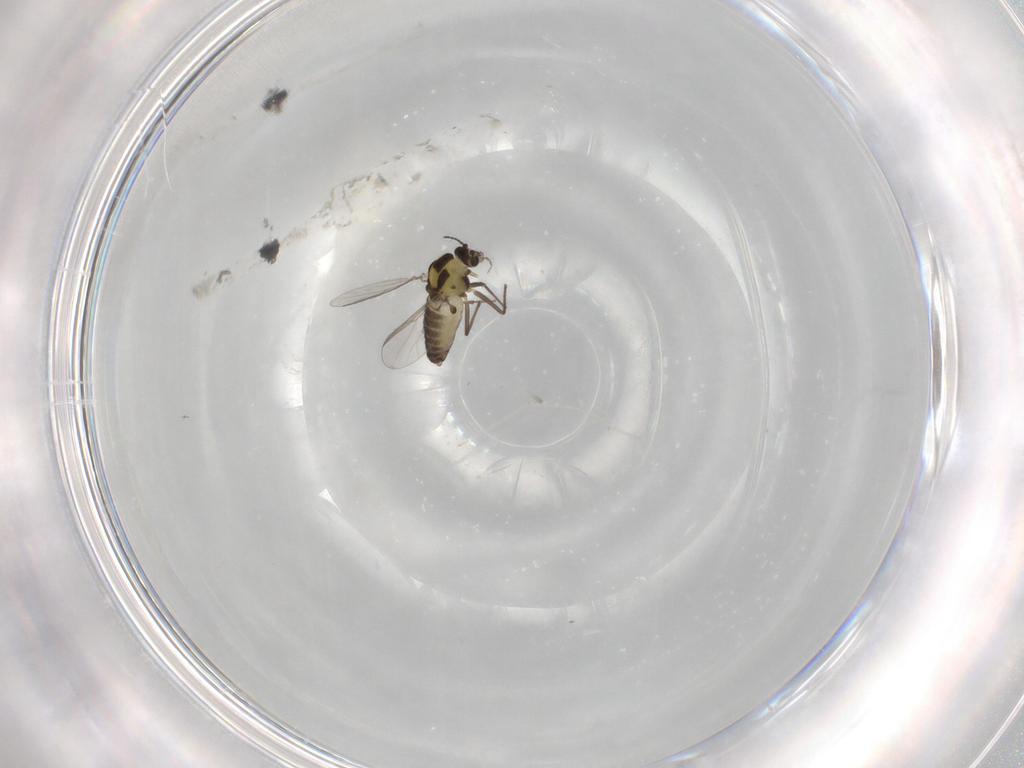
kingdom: Animalia
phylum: Arthropoda
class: Insecta
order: Diptera
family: Chironomidae
